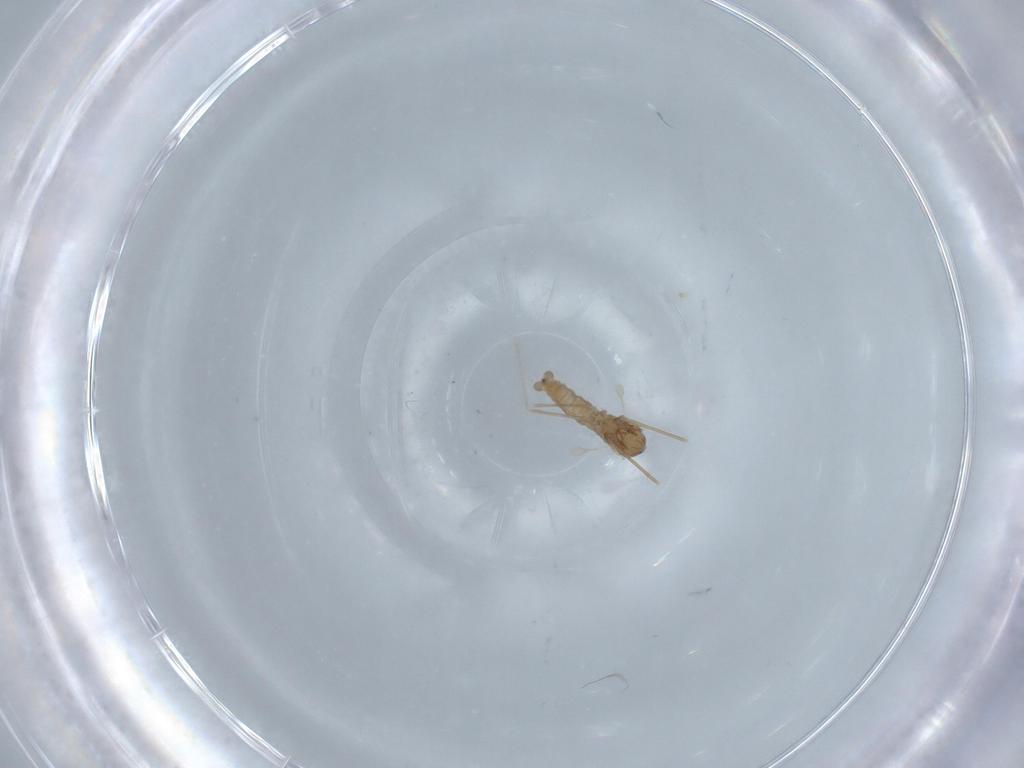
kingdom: Animalia
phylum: Arthropoda
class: Insecta
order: Diptera
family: Cecidomyiidae
